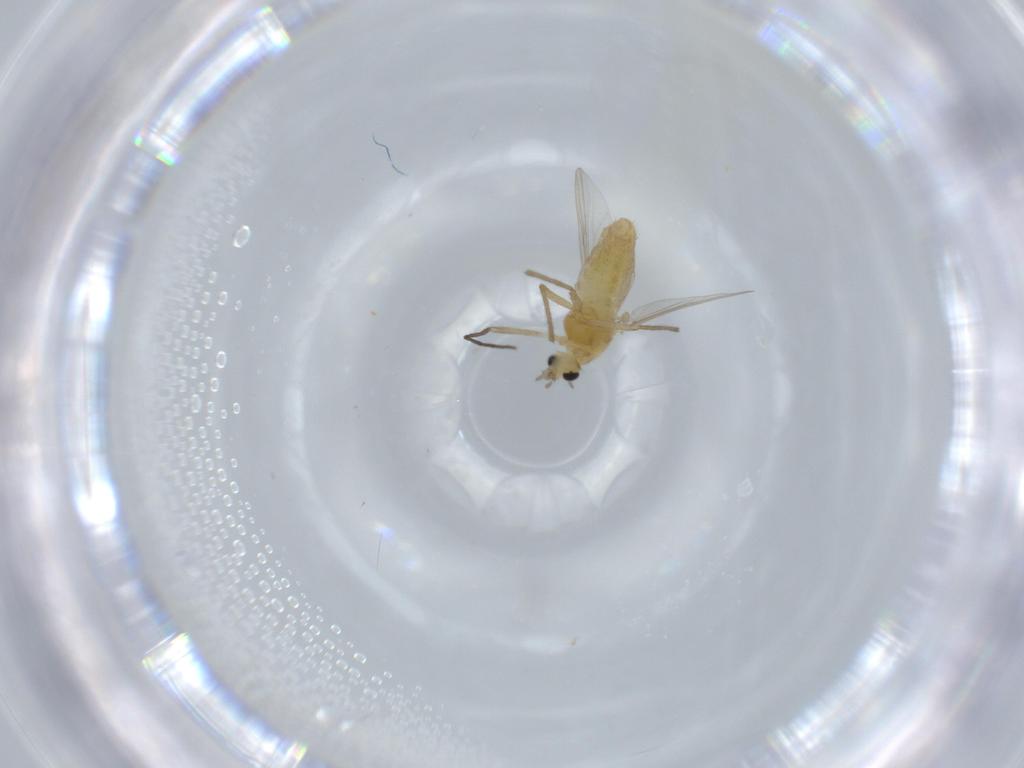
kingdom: Animalia
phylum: Arthropoda
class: Insecta
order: Diptera
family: Chironomidae
